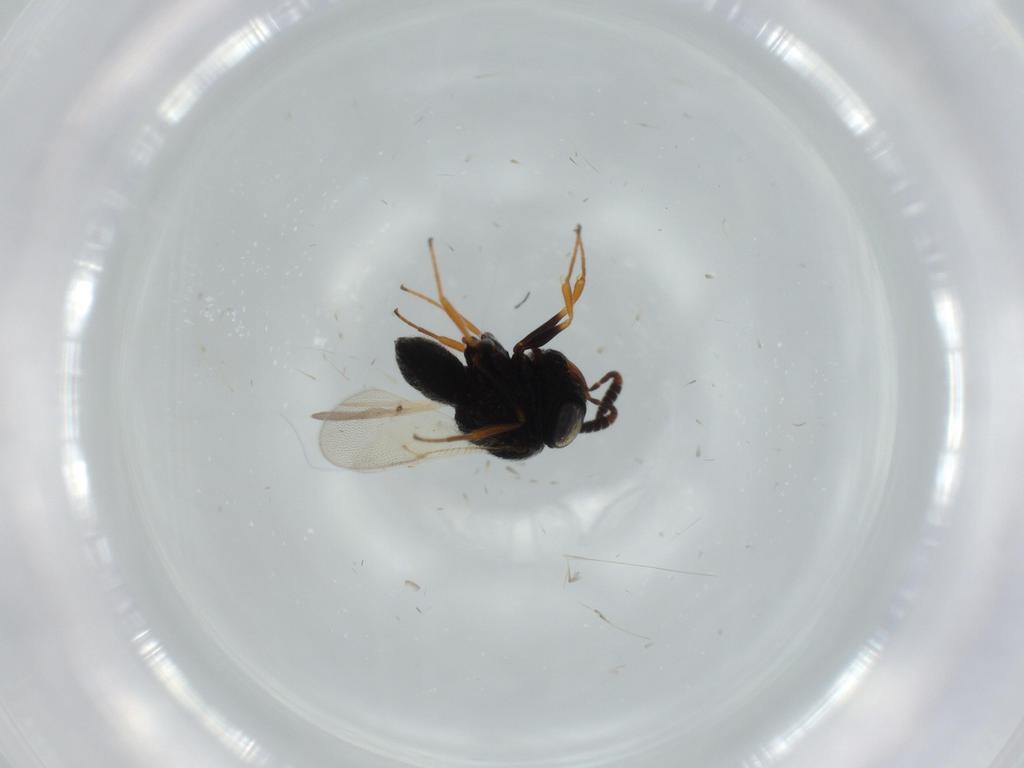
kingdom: Animalia
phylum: Arthropoda
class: Insecta
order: Hymenoptera
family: Scelionidae
